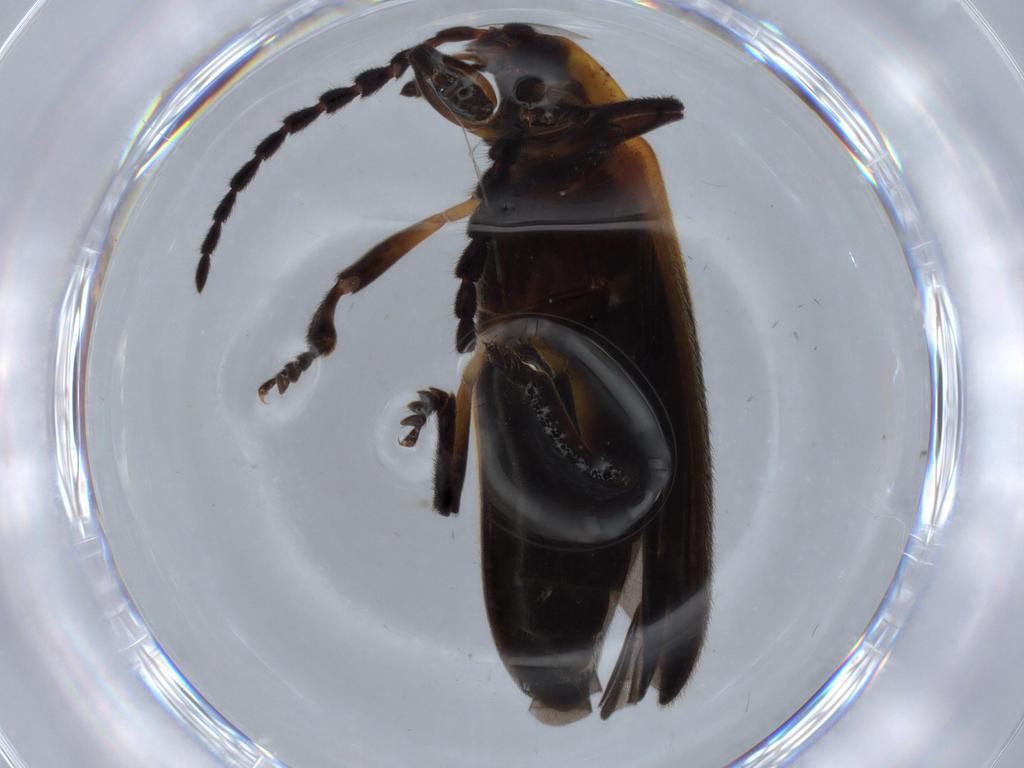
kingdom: Animalia
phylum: Arthropoda
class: Insecta
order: Coleoptera
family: Lycidae
